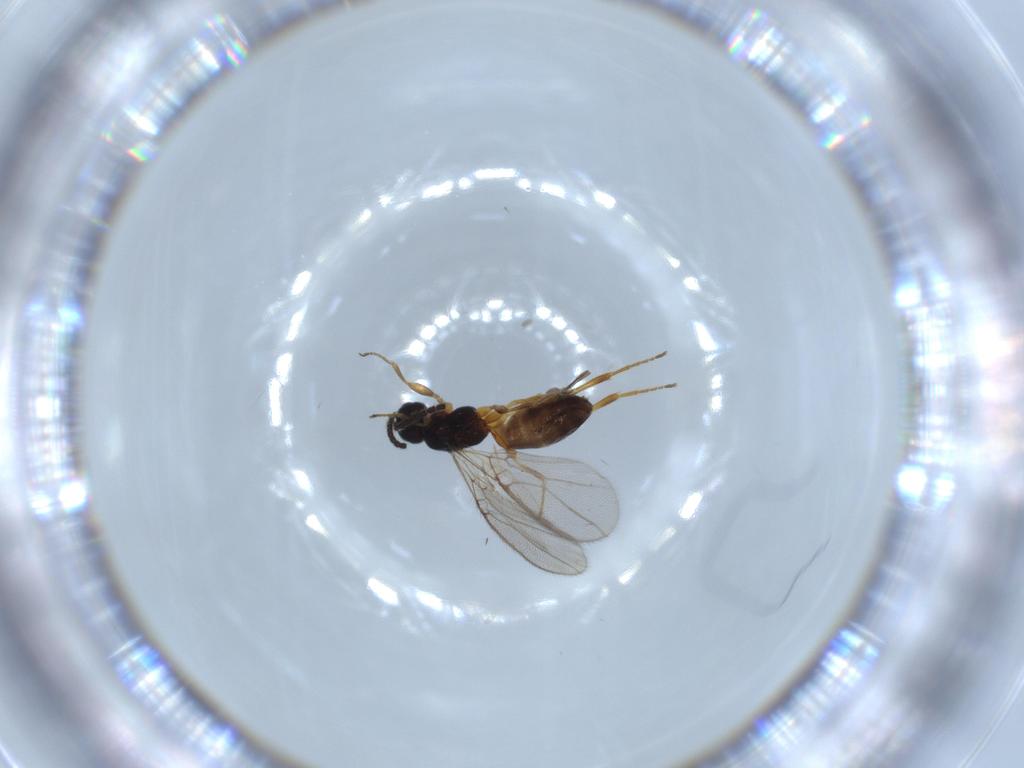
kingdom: Animalia
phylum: Arthropoda
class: Insecta
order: Hymenoptera
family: Braconidae
